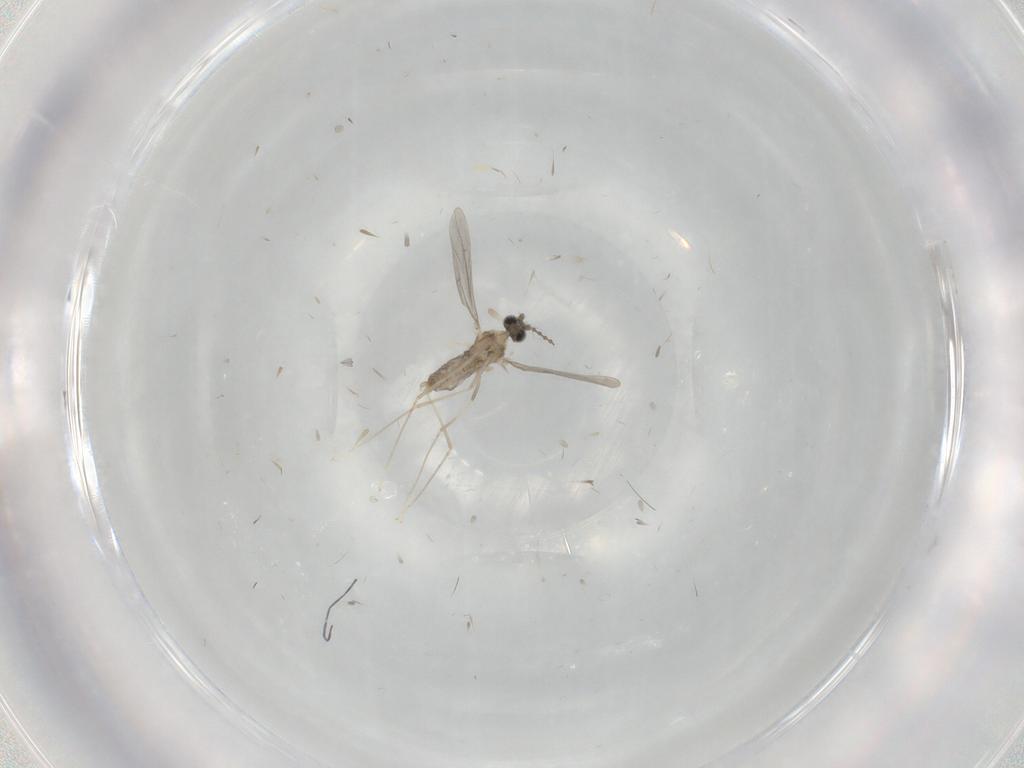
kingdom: Animalia
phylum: Arthropoda
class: Insecta
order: Diptera
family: Cecidomyiidae
